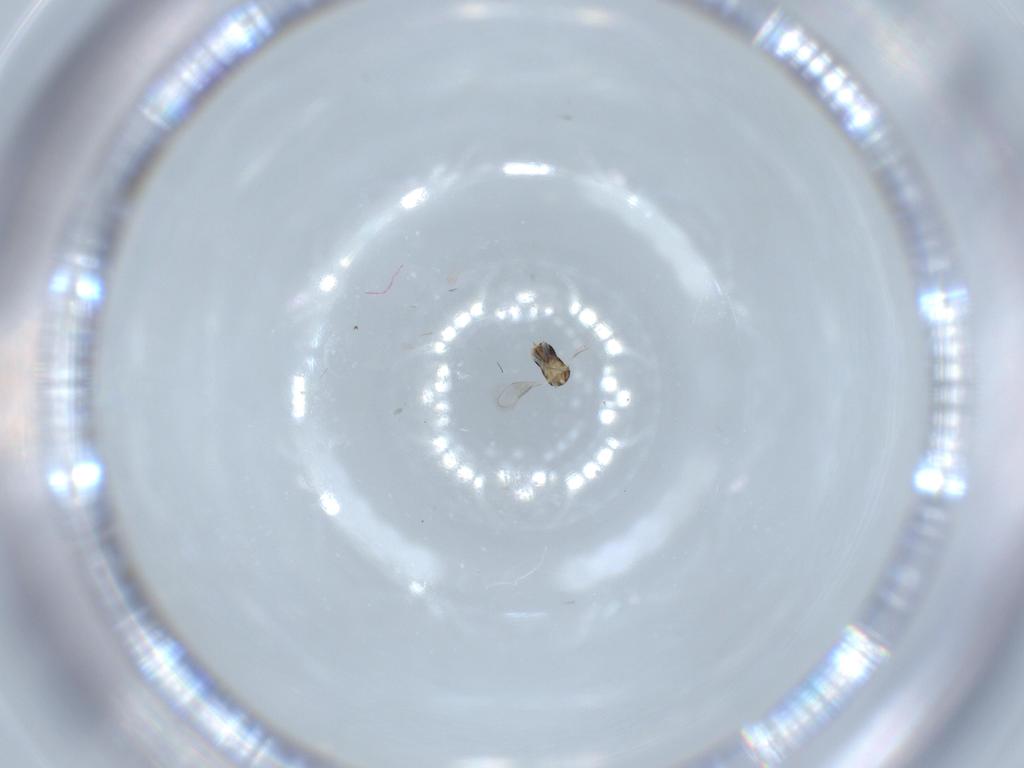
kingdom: Animalia
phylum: Arthropoda
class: Insecta
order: Hymenoptera
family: Aphelinidae
